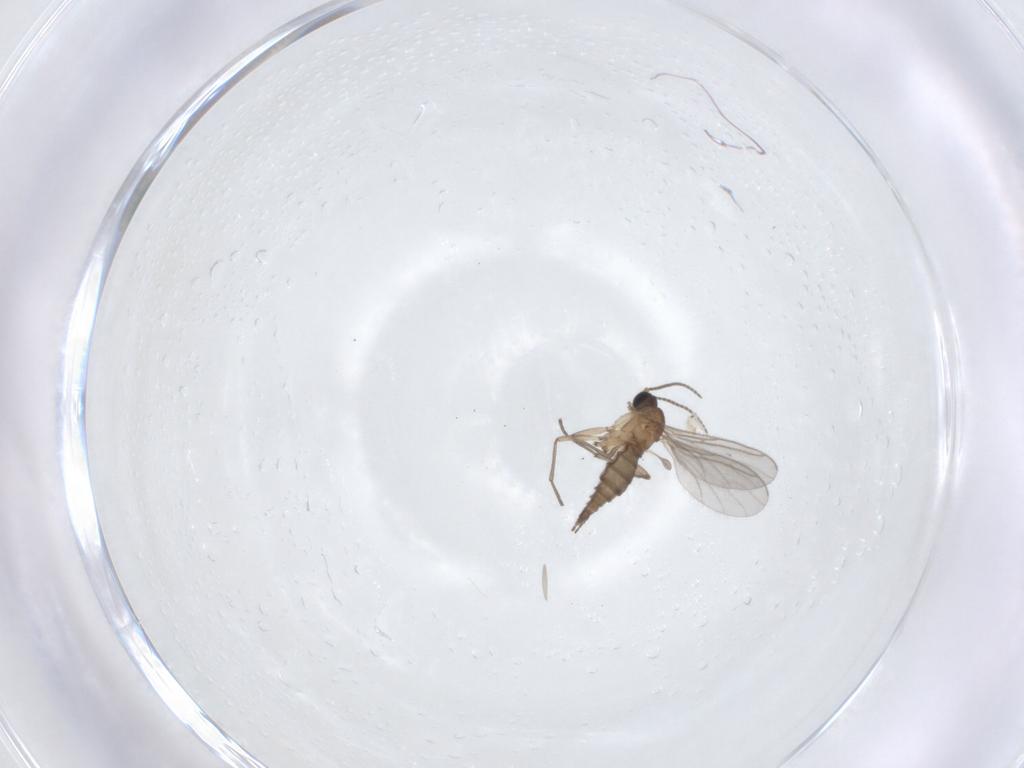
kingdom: Animalia
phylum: Arthropoda
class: Insecta
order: Diptera
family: Sciaridae
